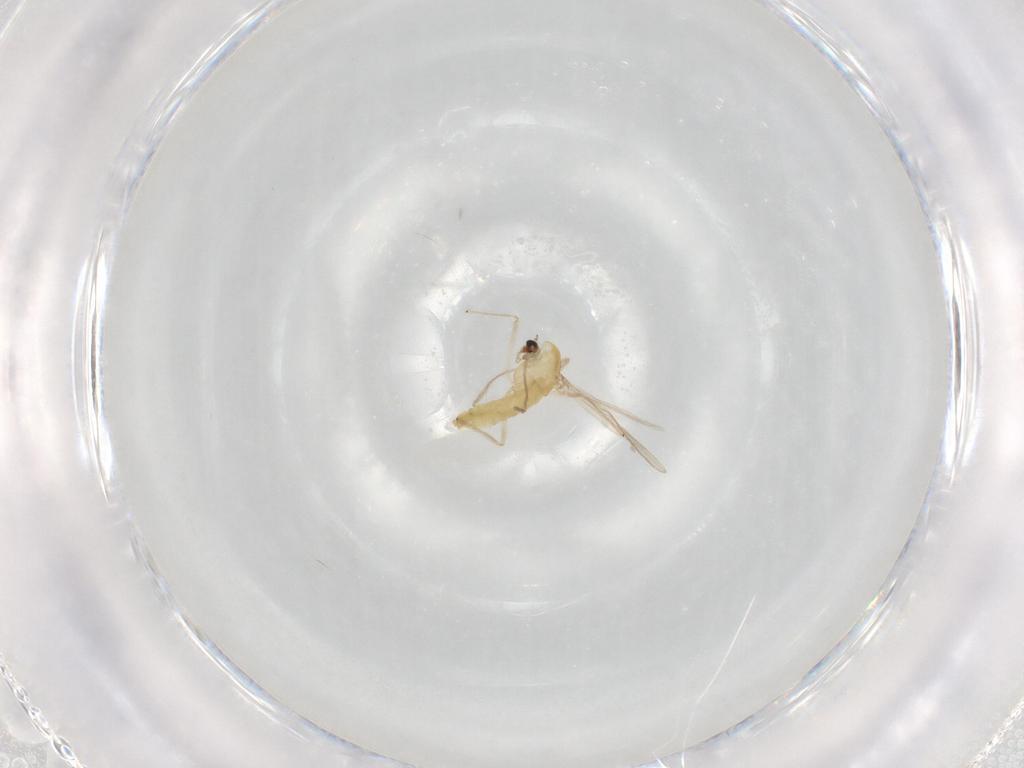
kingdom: Animalia
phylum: Arthropoda
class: Insecta
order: Diptera
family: Phoridae
